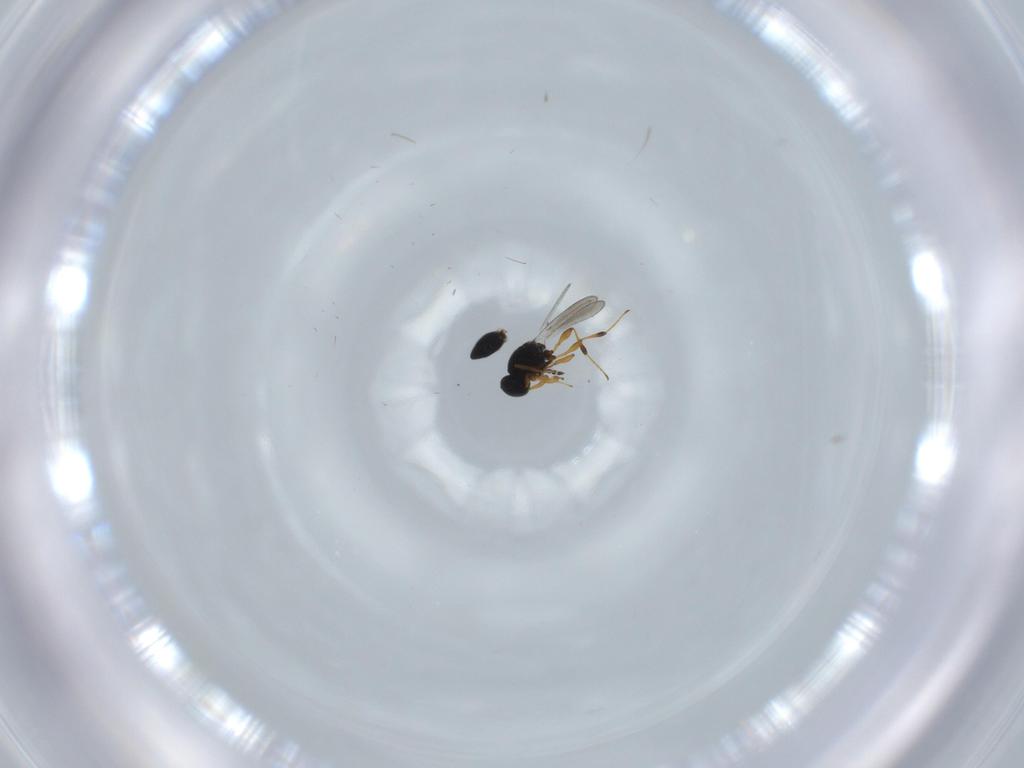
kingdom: Animalia
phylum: Arthropoda
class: Insecta
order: Hymenoptera
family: Platygastridae
